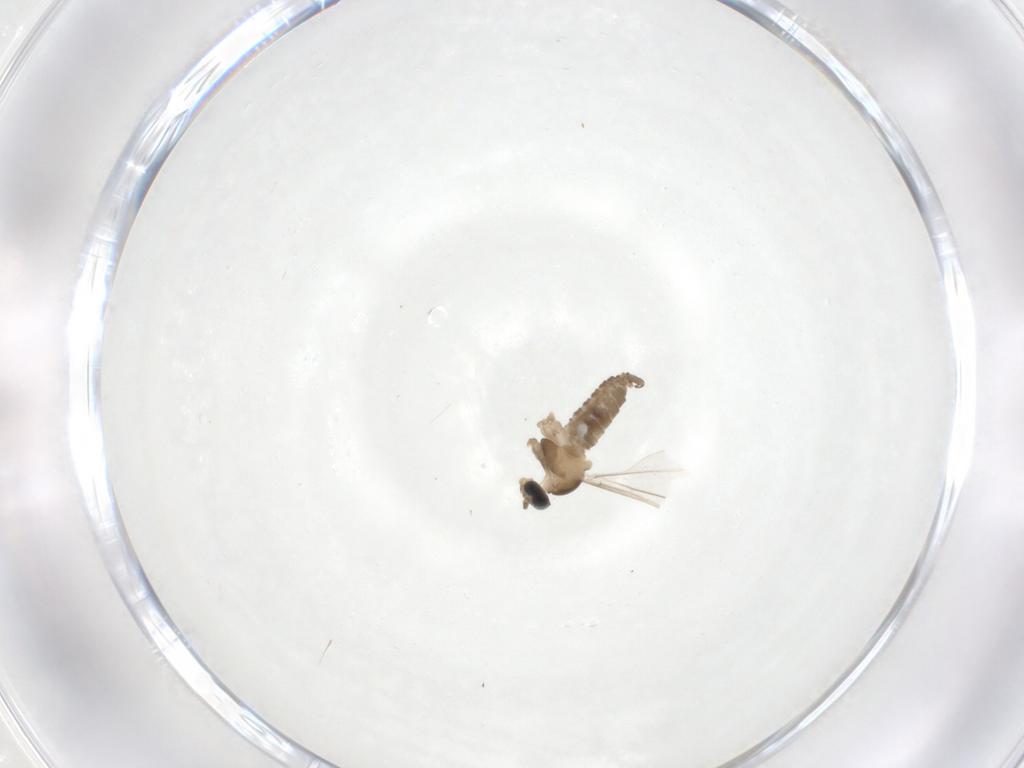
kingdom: Animalia
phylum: Arthropoda
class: Insecta
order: Diptera
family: Cecidomyiidae
